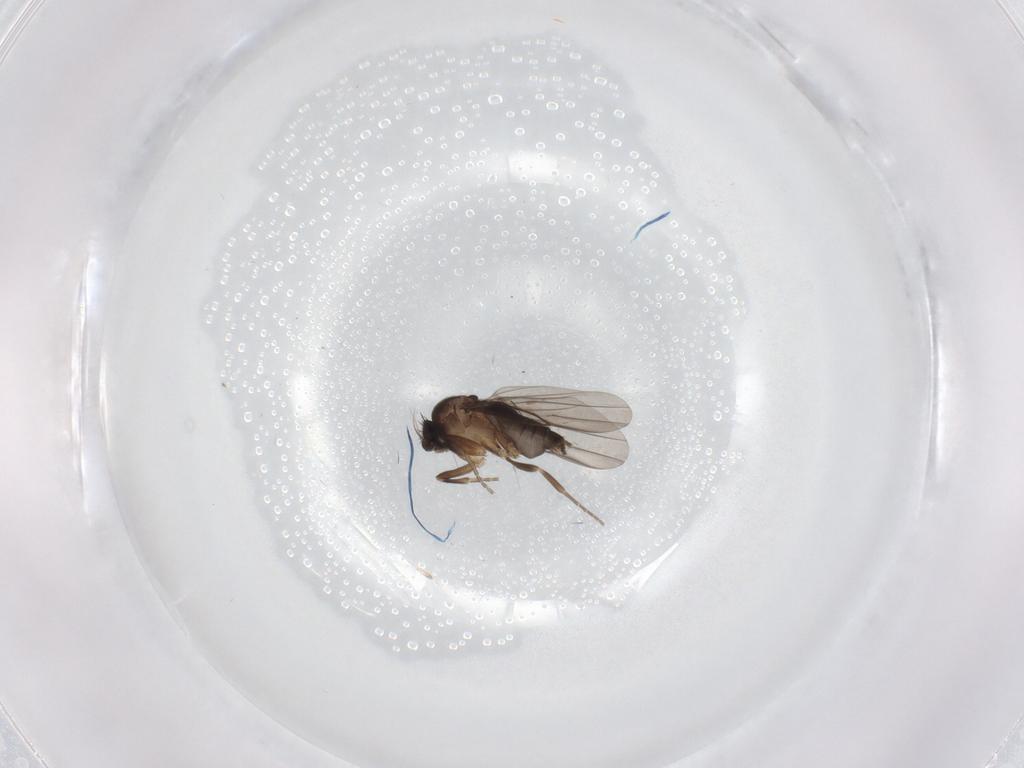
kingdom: Animalia
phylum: Arthropoda
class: Insecta
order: Diptera
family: Phoridae
